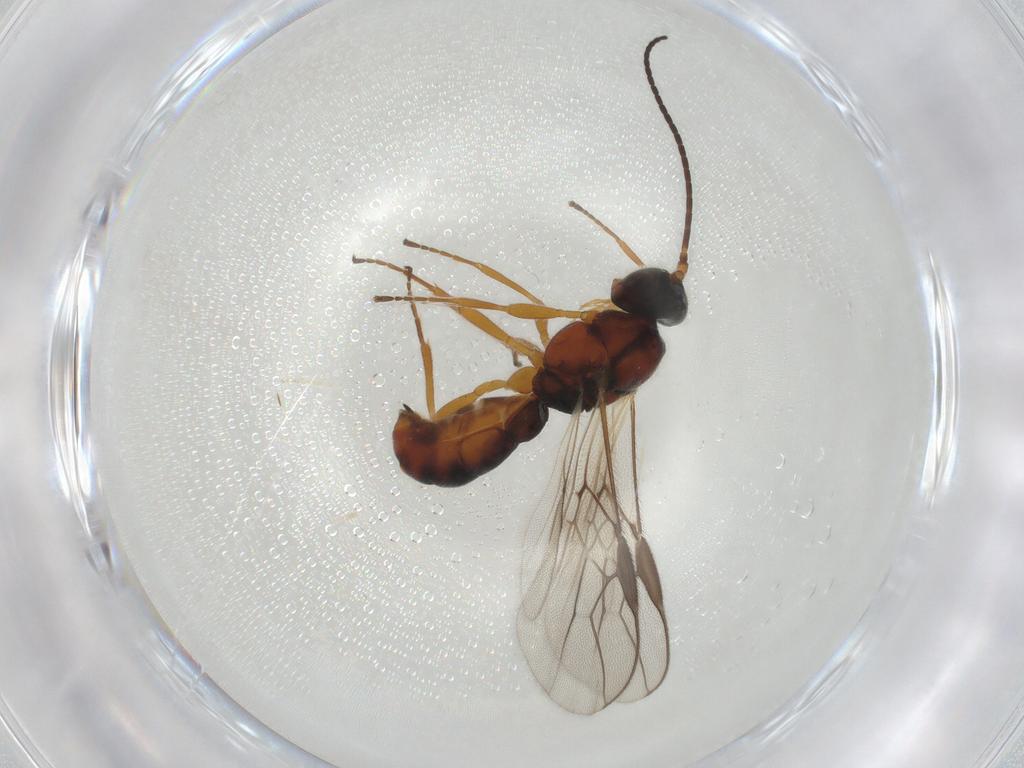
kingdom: Animalia
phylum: Arthropoda
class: Insecta
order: Hymenoptera
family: Braconidae
